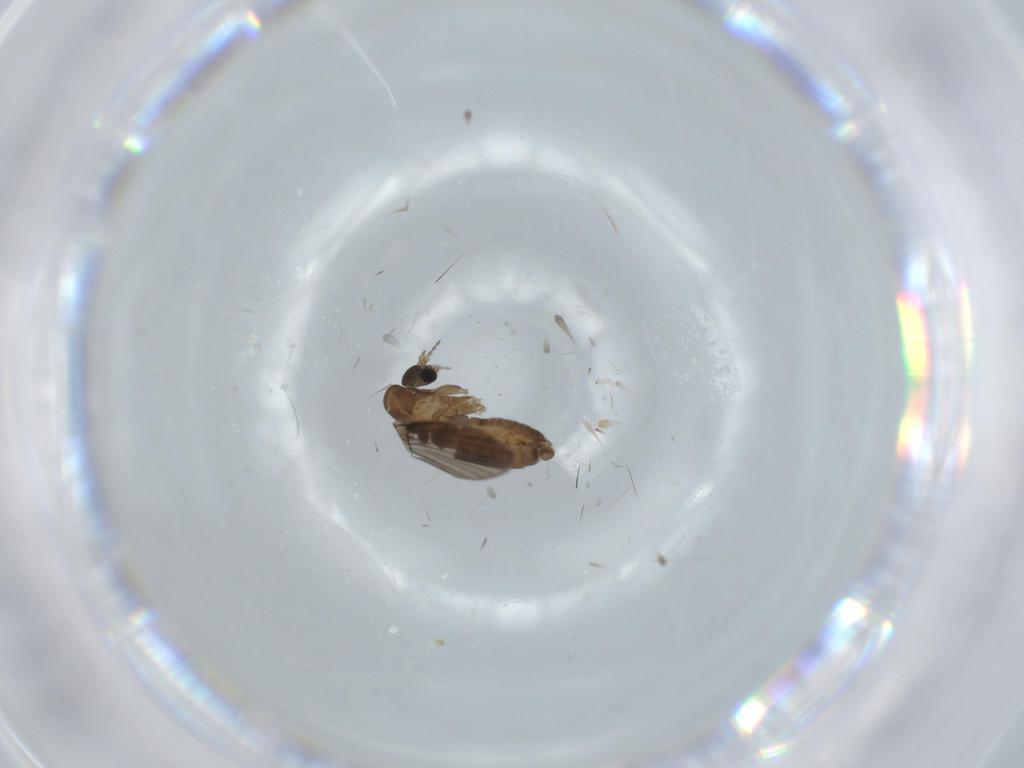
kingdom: Animalia
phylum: Arthropoda
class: Insecta
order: Diptera
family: Psychodidae
